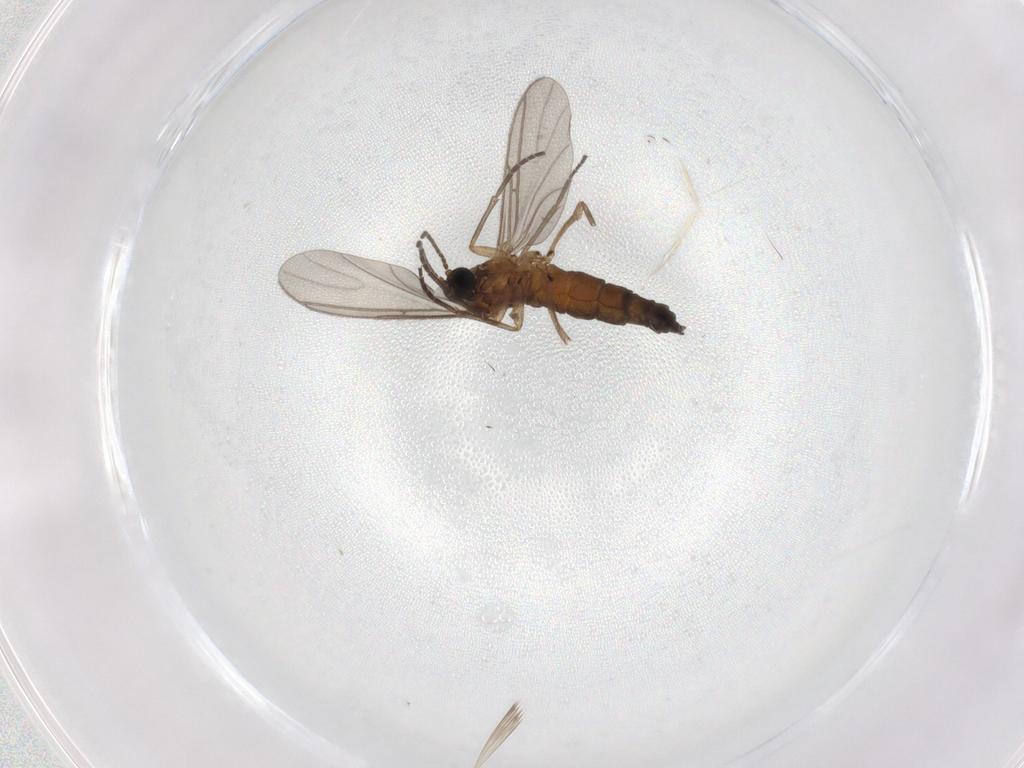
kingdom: Animalia
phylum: Arthropoda
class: Insecta
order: Diptera
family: Sciaridae
